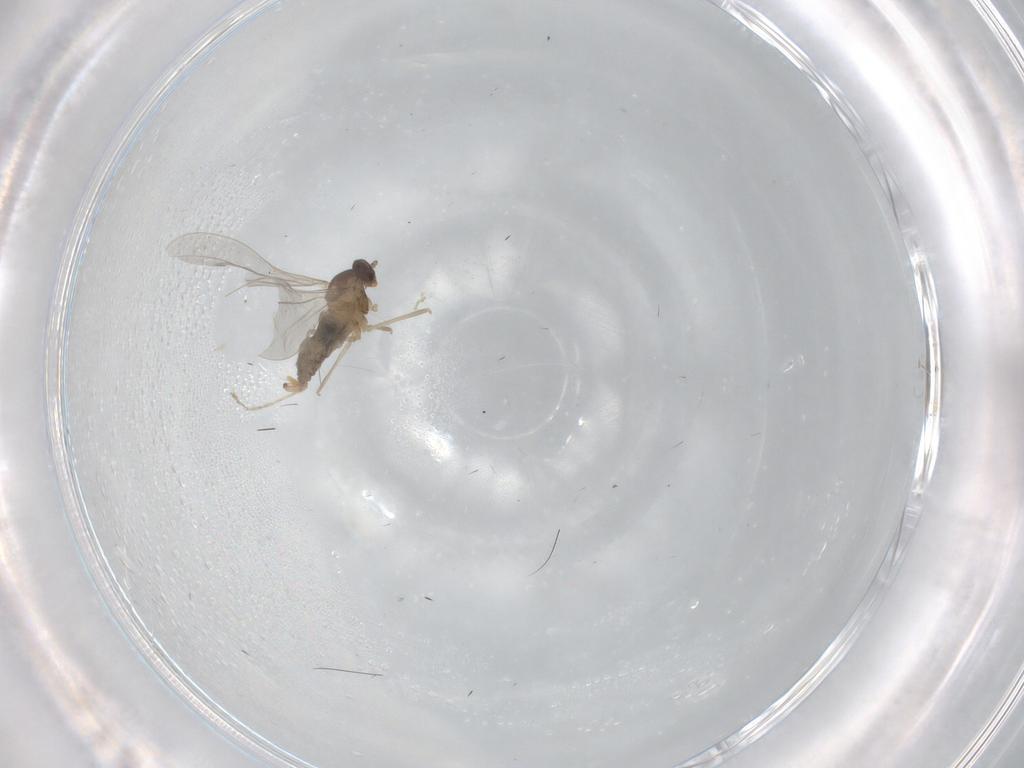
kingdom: Animalia
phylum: Arthropoda
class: Insecta
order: Diptera
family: Cecidomyiidae
